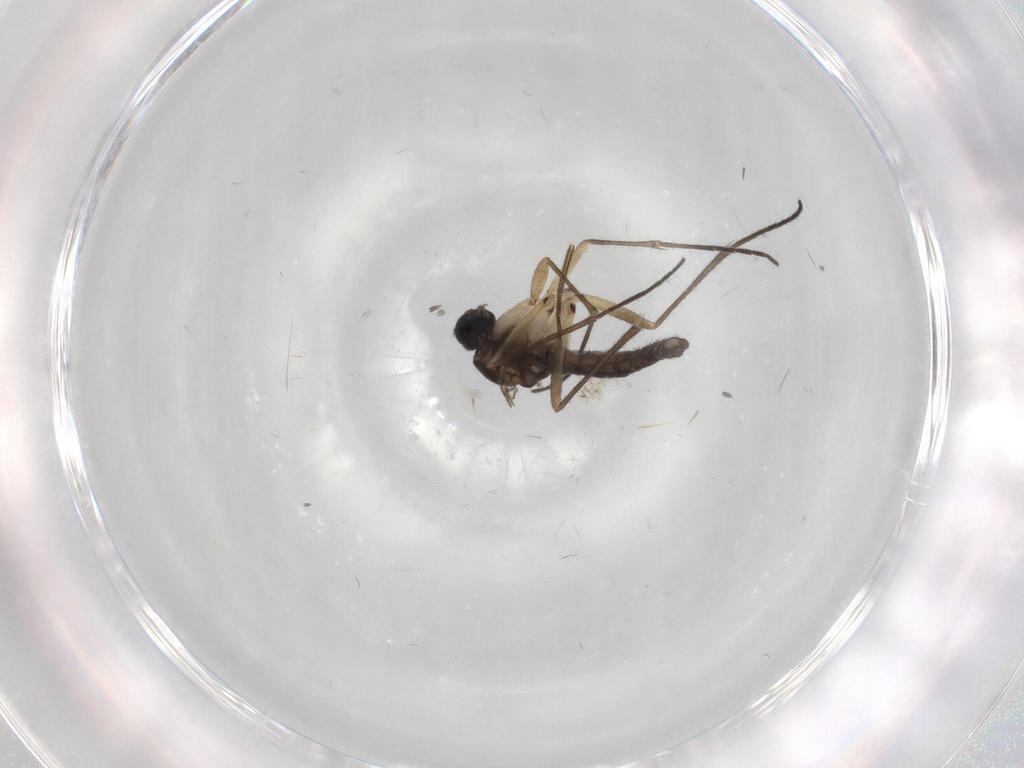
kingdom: Animalia
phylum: Arthropoda
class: Insecta
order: Diptera
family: Sciaridae
